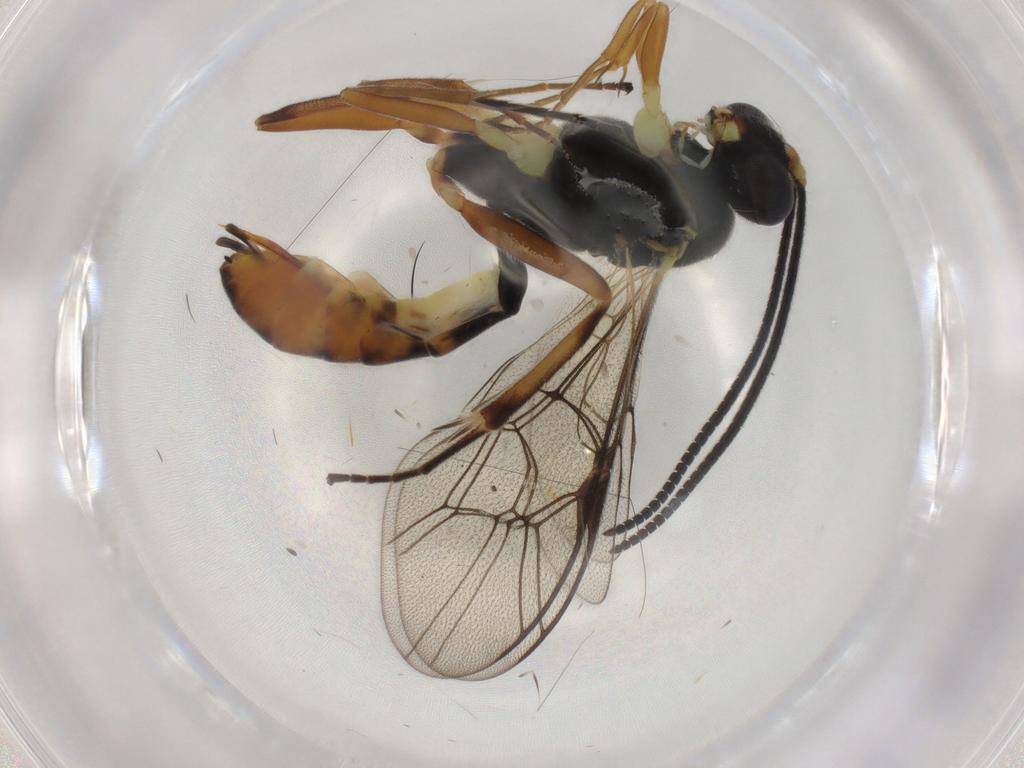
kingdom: Animalia
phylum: Arthropoda
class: Insecta
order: Hymenoptera
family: Ichneumonidae
